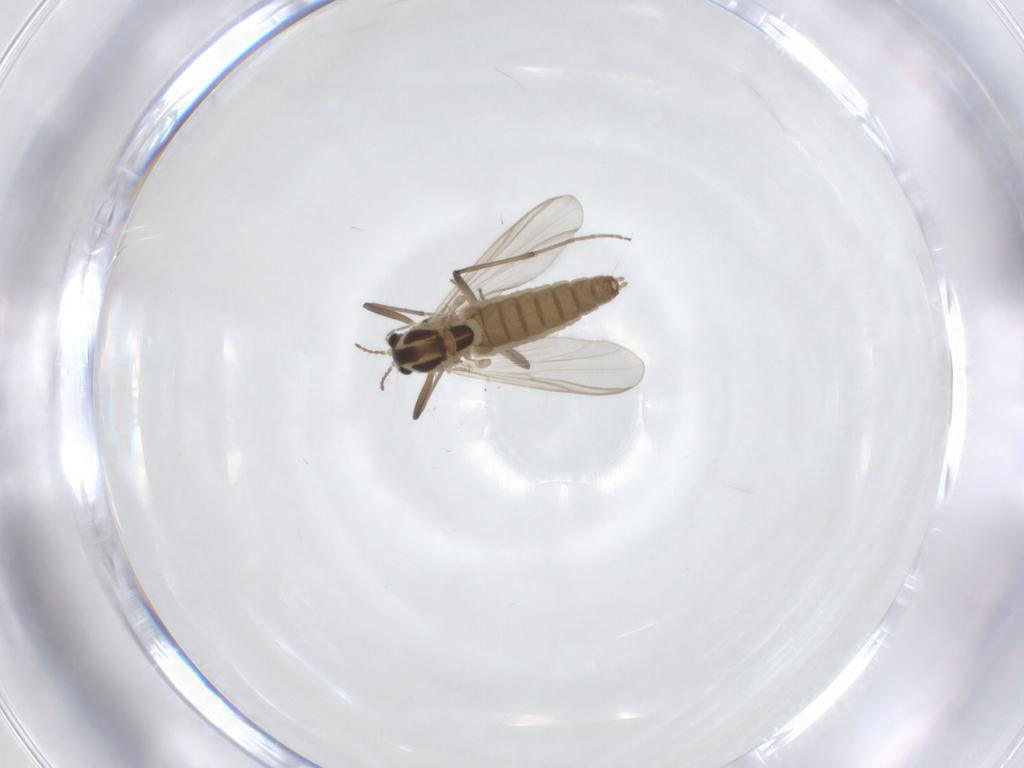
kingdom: Animalia
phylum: Arthropoda
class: Insecta
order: Diptera
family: Chironomidae
